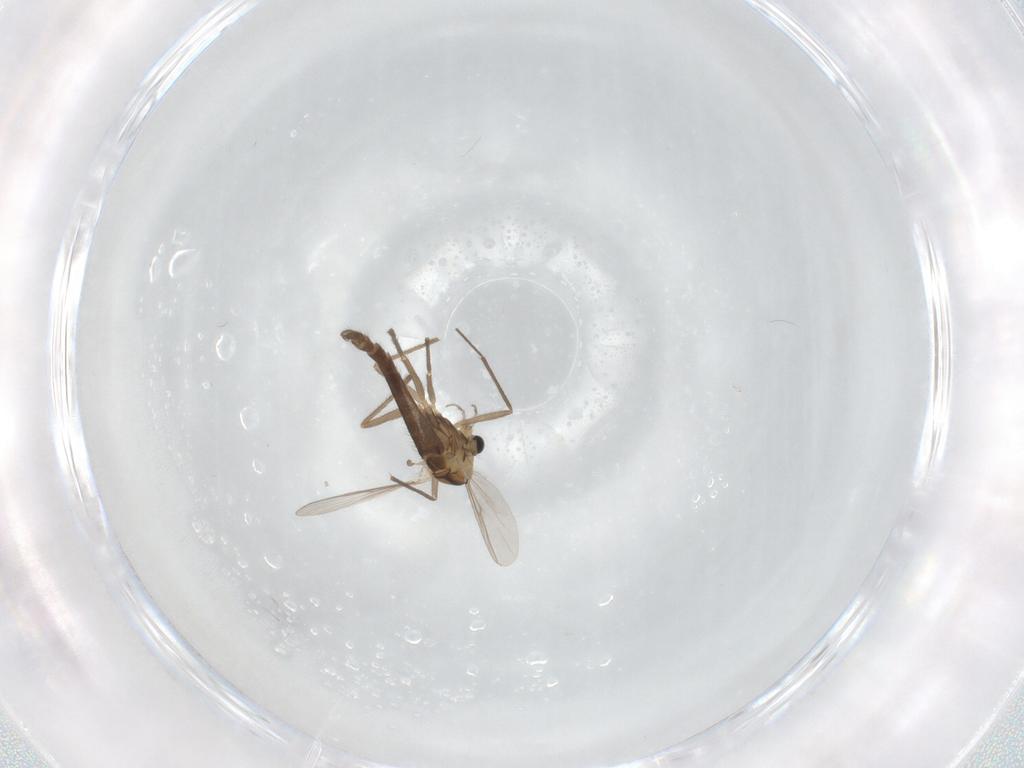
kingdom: Animalia
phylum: Arthropoda
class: Insecta
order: Diptera
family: Chironomidae
